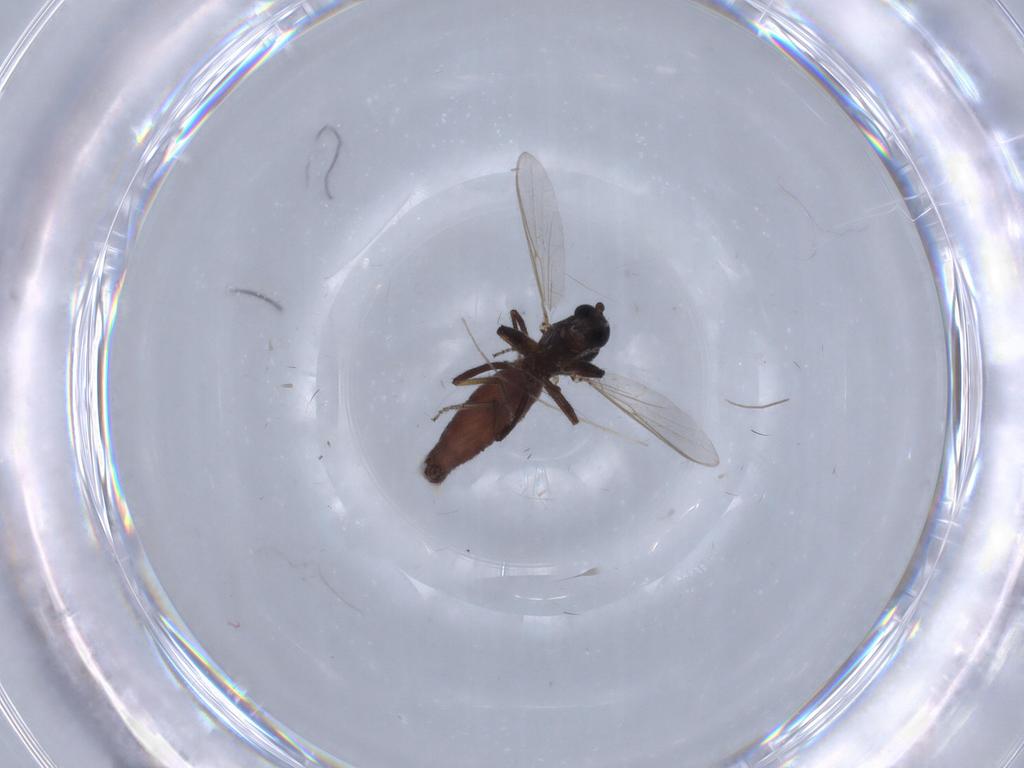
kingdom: Animalia
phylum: Arthropoda
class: Insecta
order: Diptera
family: Ceratopogonidae
